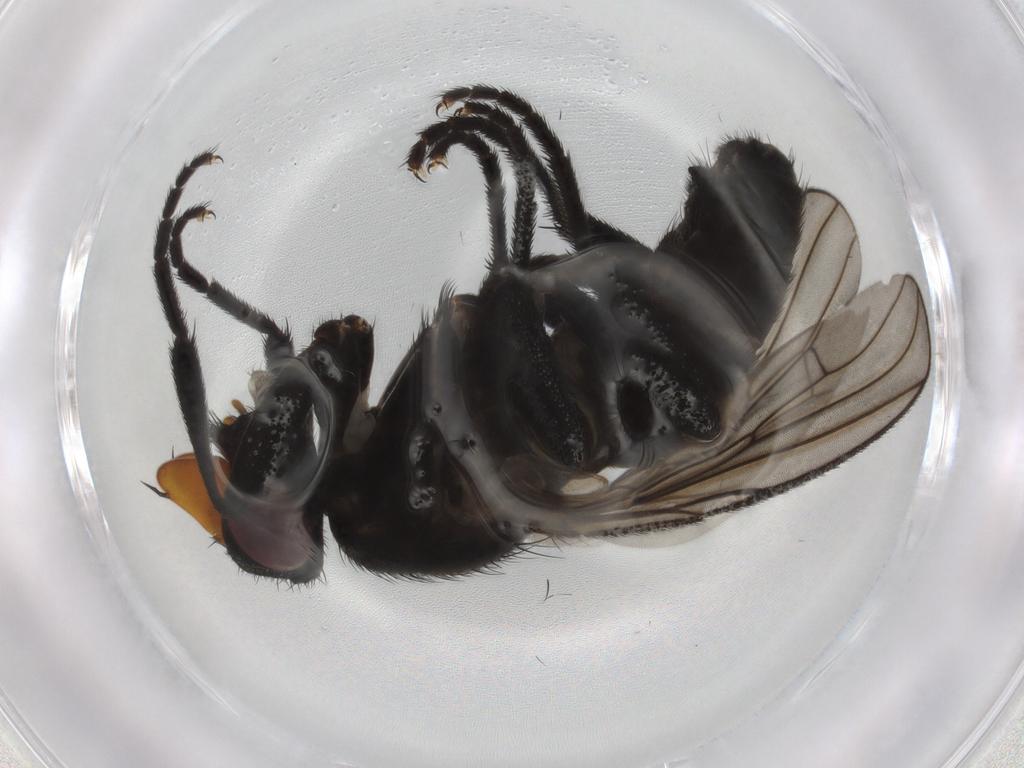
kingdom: Animalia
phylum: Arthropoda
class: Insecta
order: Diptera
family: Calliphoridae
